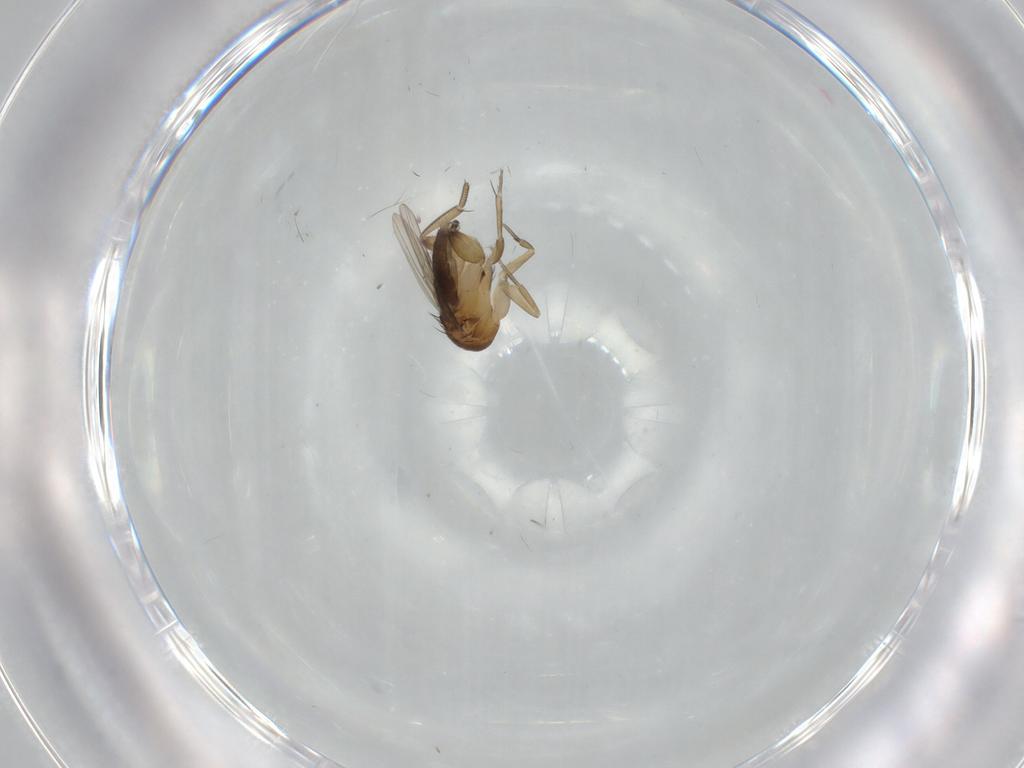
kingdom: Animalia
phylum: Arthropoda
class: Insecta
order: Diptera
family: Phoridae
